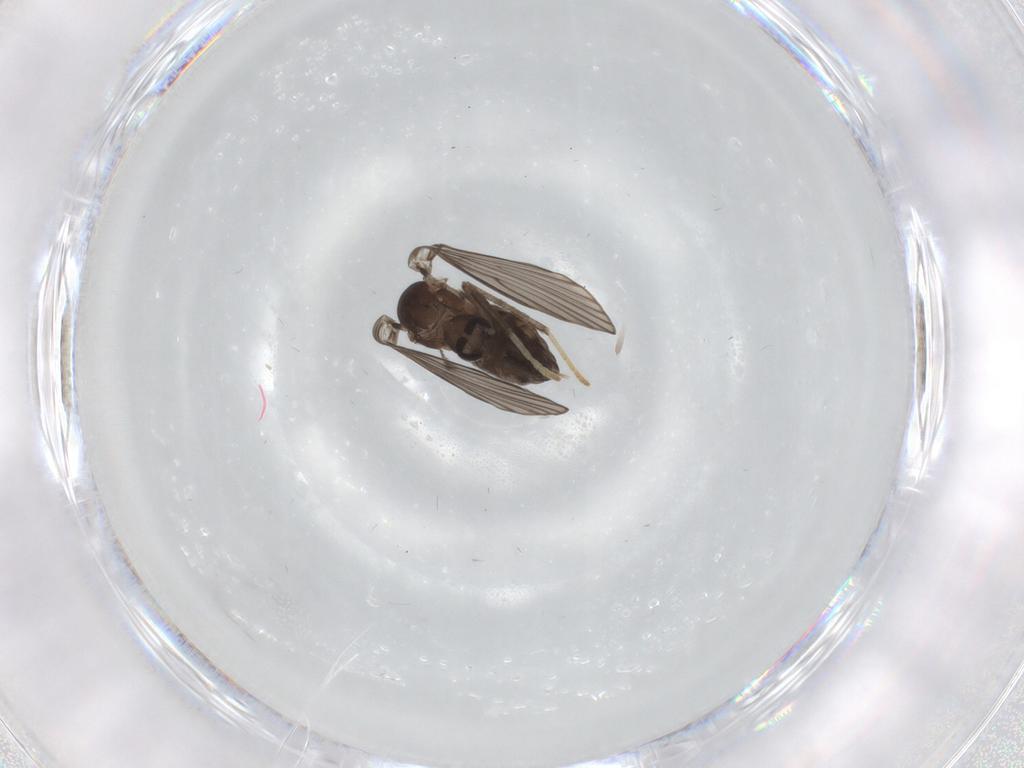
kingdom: Animalia
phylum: Arthropoda
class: Insecta
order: Diptera
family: Psychodidae
